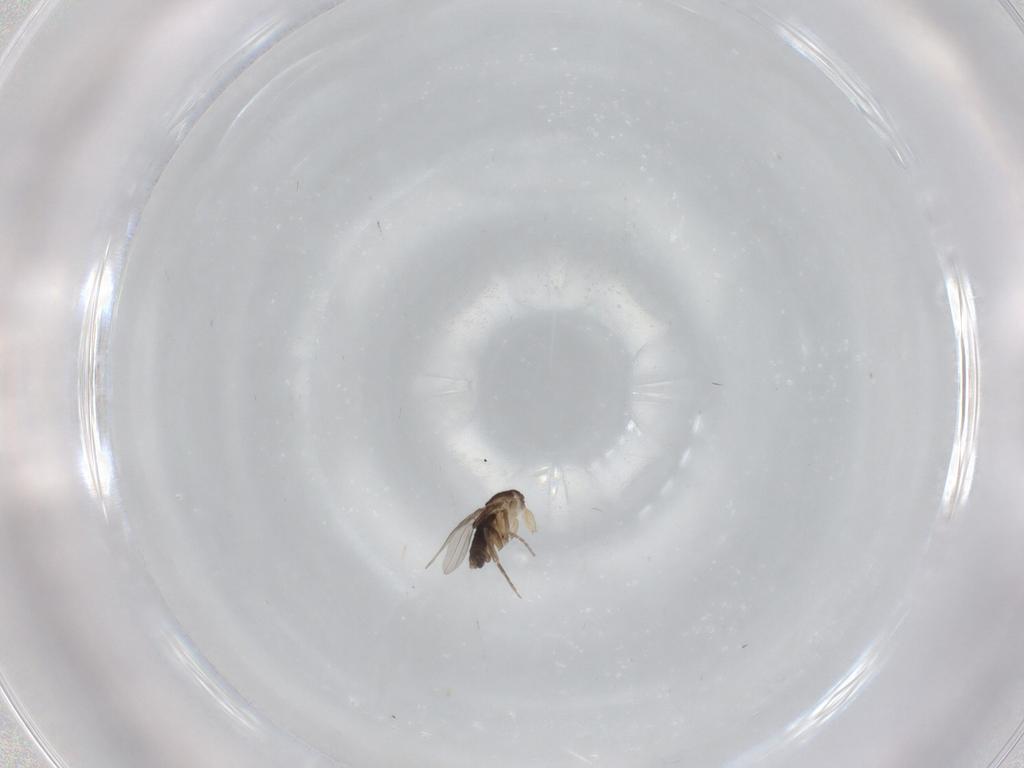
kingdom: Animalia
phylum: Arthropoda
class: Insecta
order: Diptera
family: Phoridae
